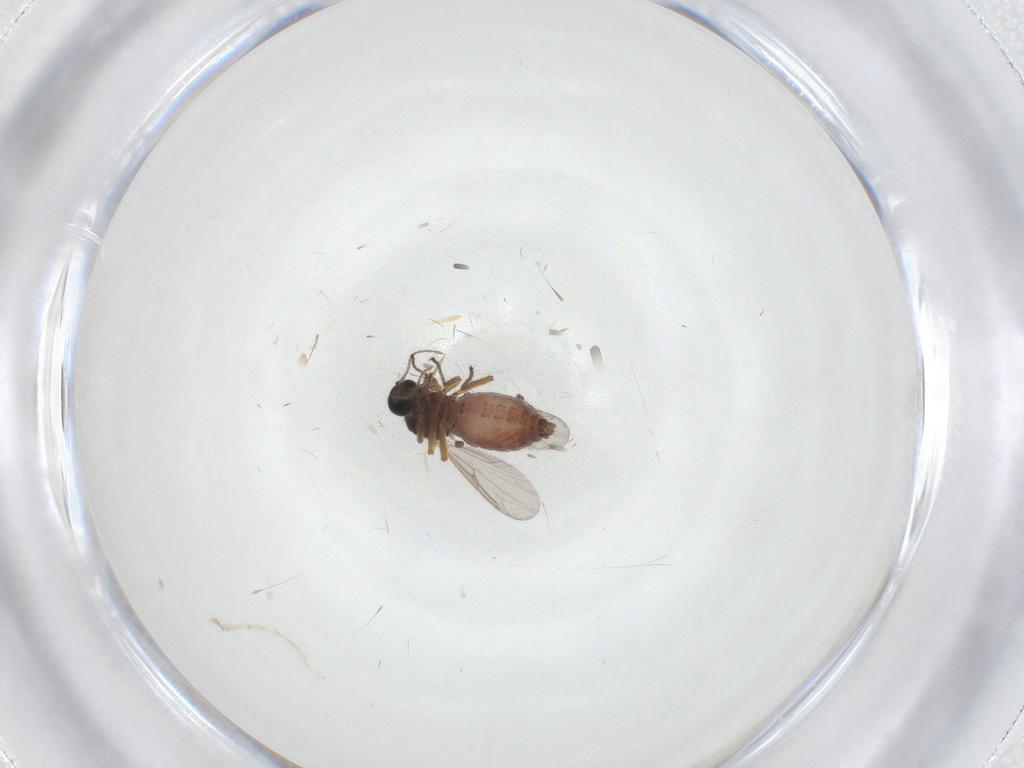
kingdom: Animalia
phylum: Arthropoda
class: Insecta
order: Diptera
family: Ceratopogonidae
